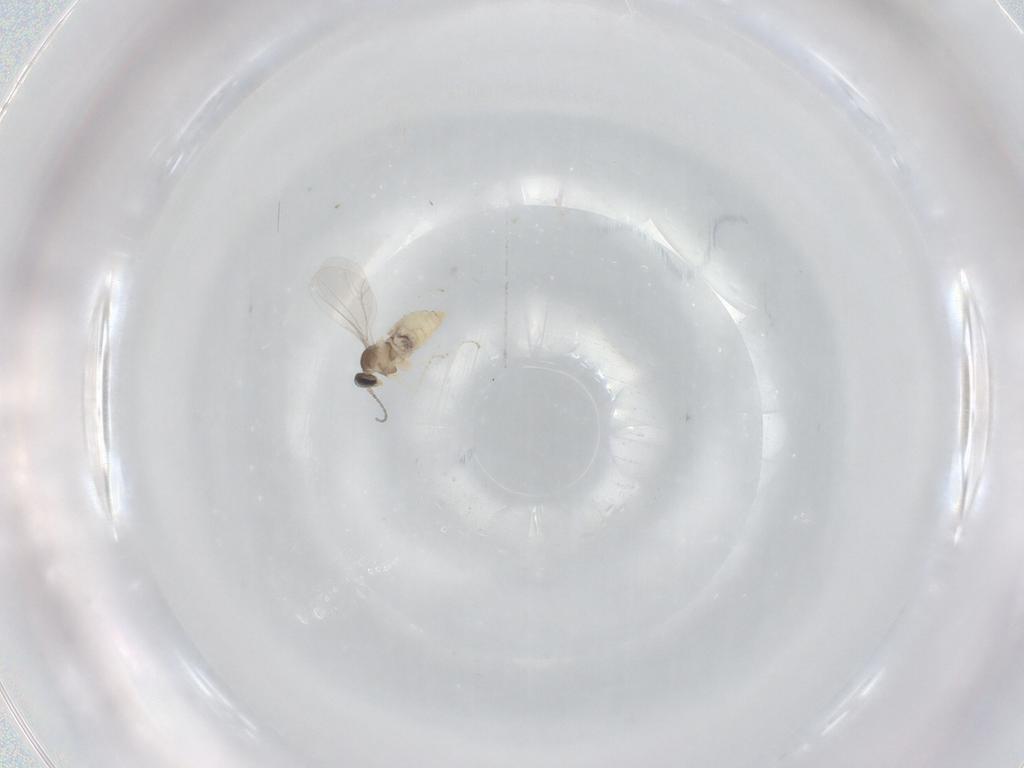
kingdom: Animalia
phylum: Arthropoda
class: Insecta
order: Diptera
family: Cecidomyiidae
